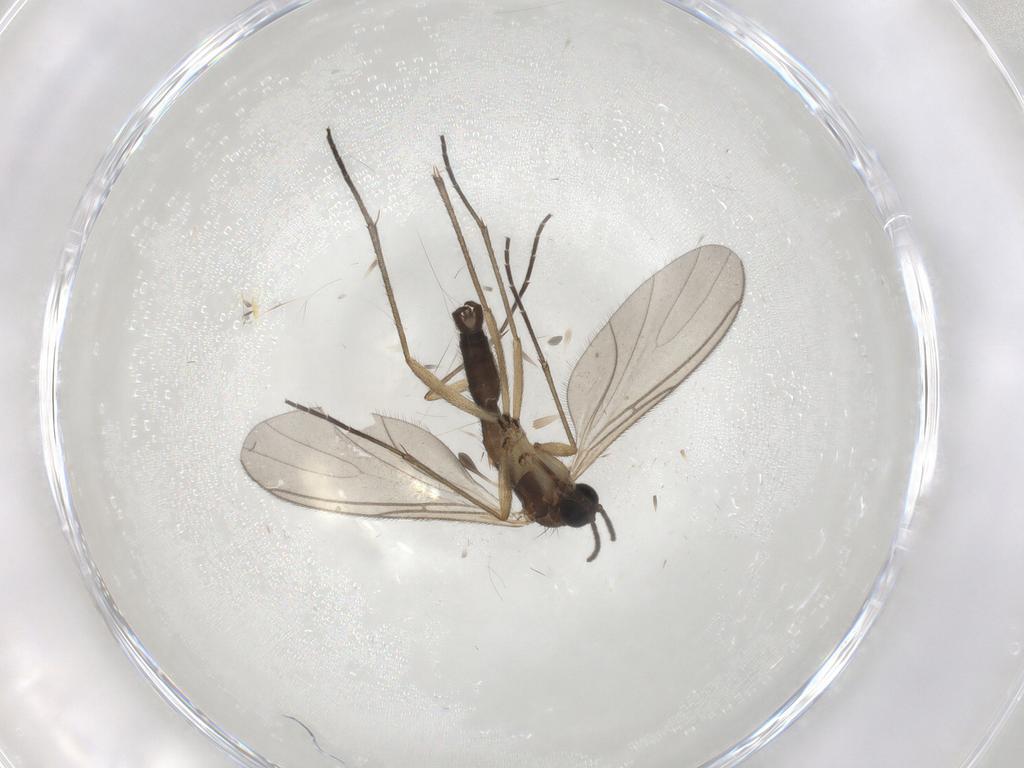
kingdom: Animalia
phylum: Arthropoda
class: Insecta
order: Diptera
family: Sciaridae
